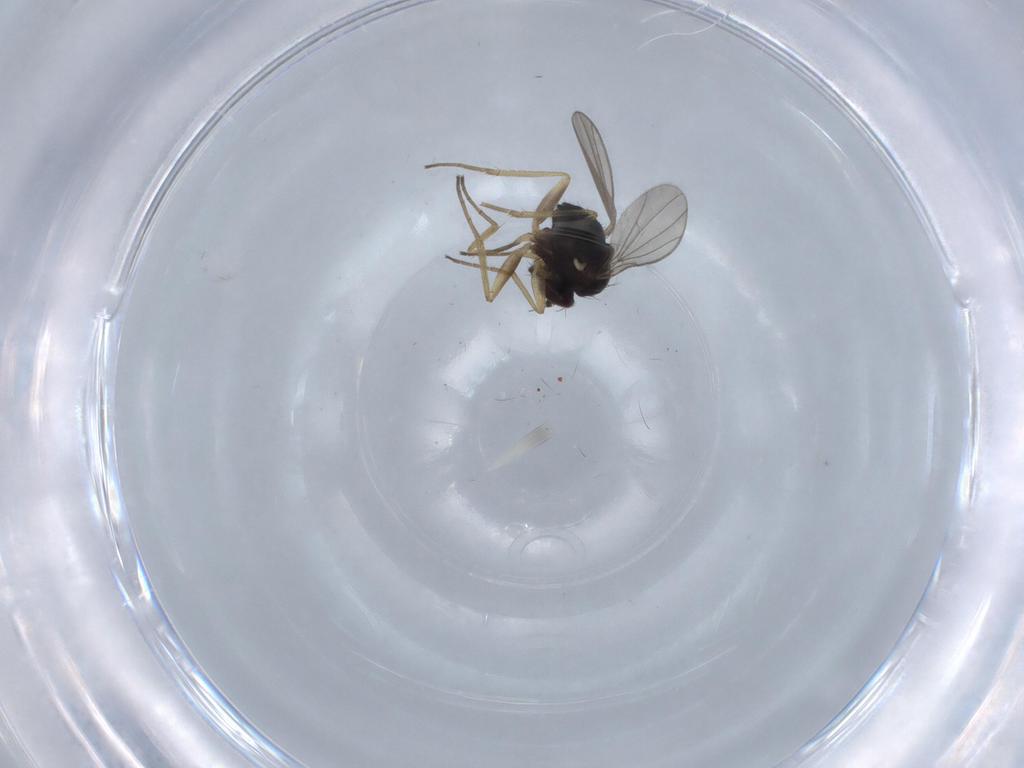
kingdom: Animalia
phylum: Arthropoda
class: Insecta
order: Diptera
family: Dolichopodidae
